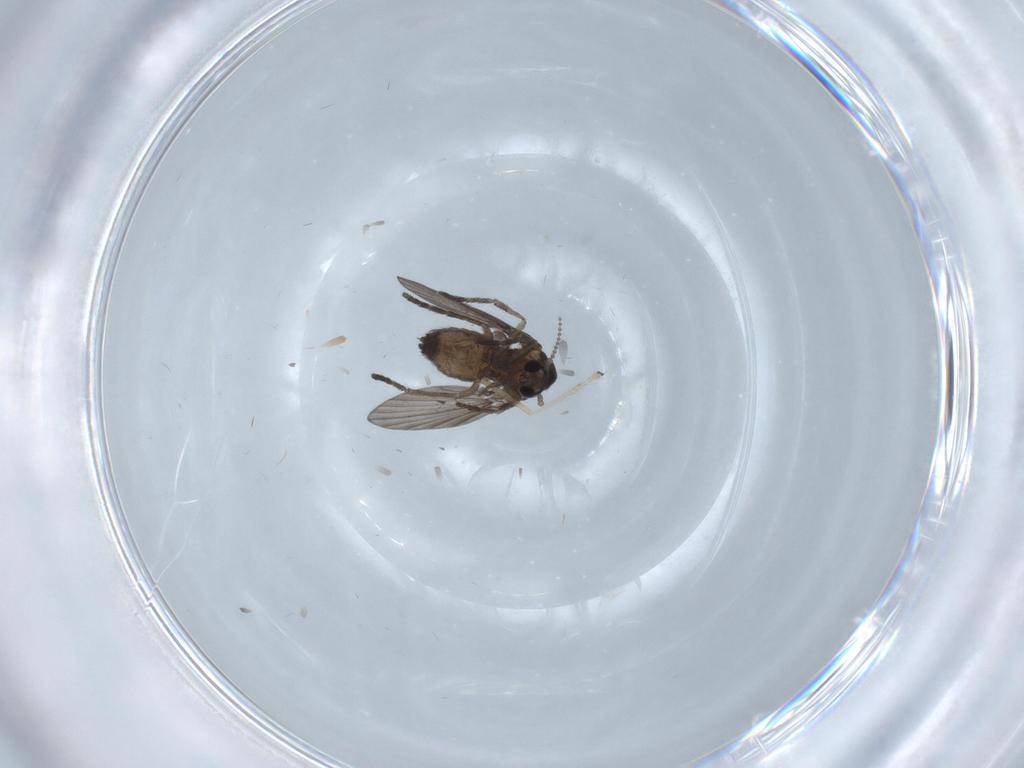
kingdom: Animalia
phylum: Arthropoda
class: Insecta
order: Diptera
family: Psychodidae
